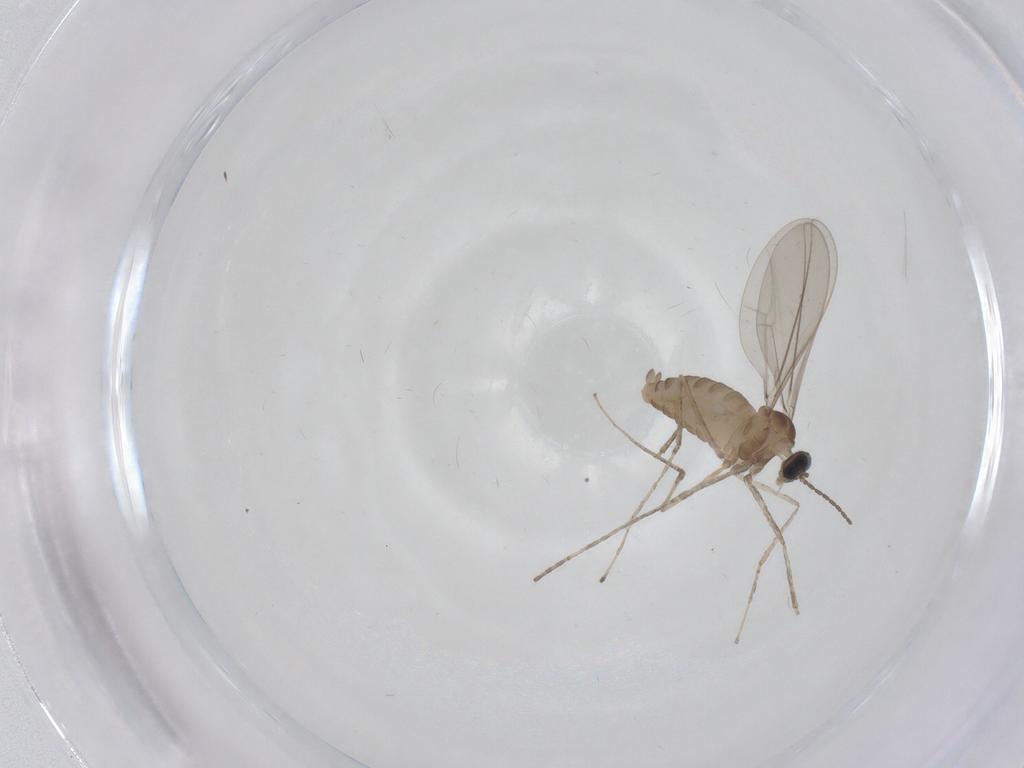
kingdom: Animalia
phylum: Arthropoda
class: Insecta
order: Diptera
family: Cecidomyiidae
